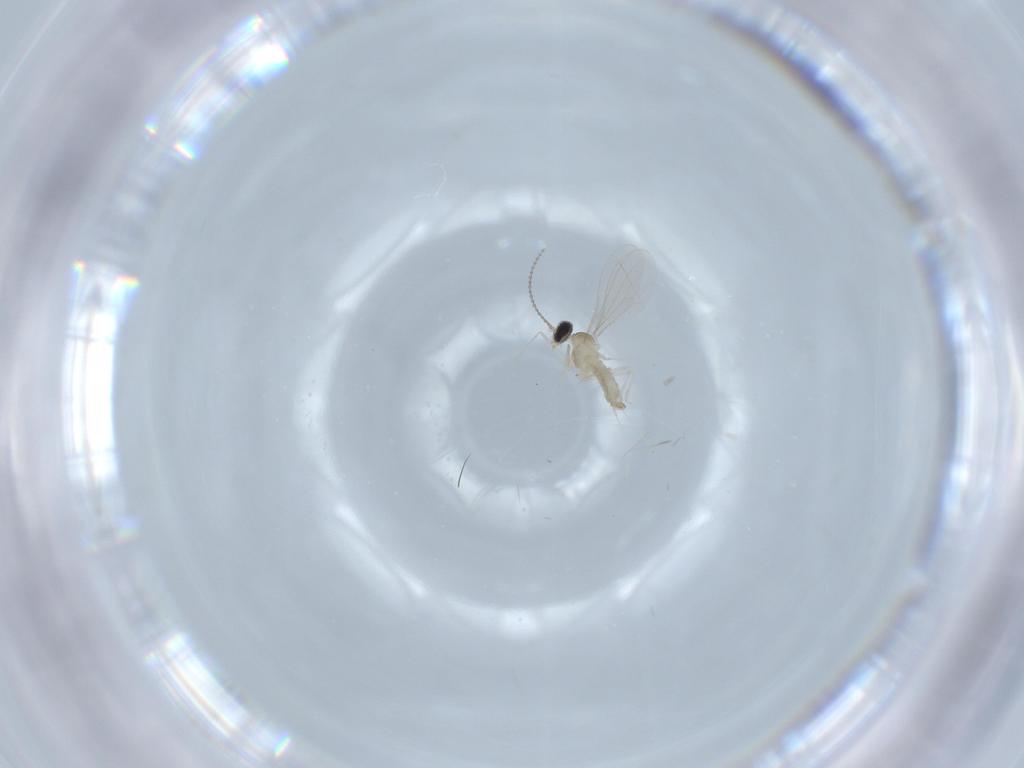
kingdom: Animalia
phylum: Arthropoda
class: Insecta
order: Diptera
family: Cecidomyiidae
